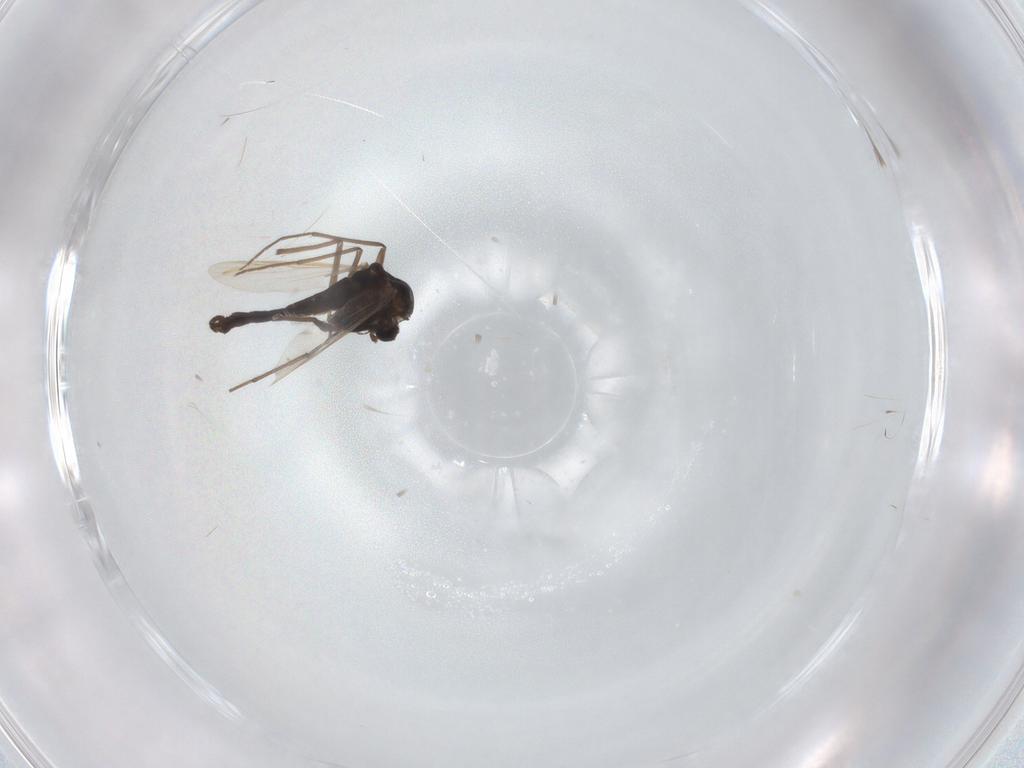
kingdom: Animalia
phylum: Arthropoda
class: Insecta
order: Diptera
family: Chironomidae
